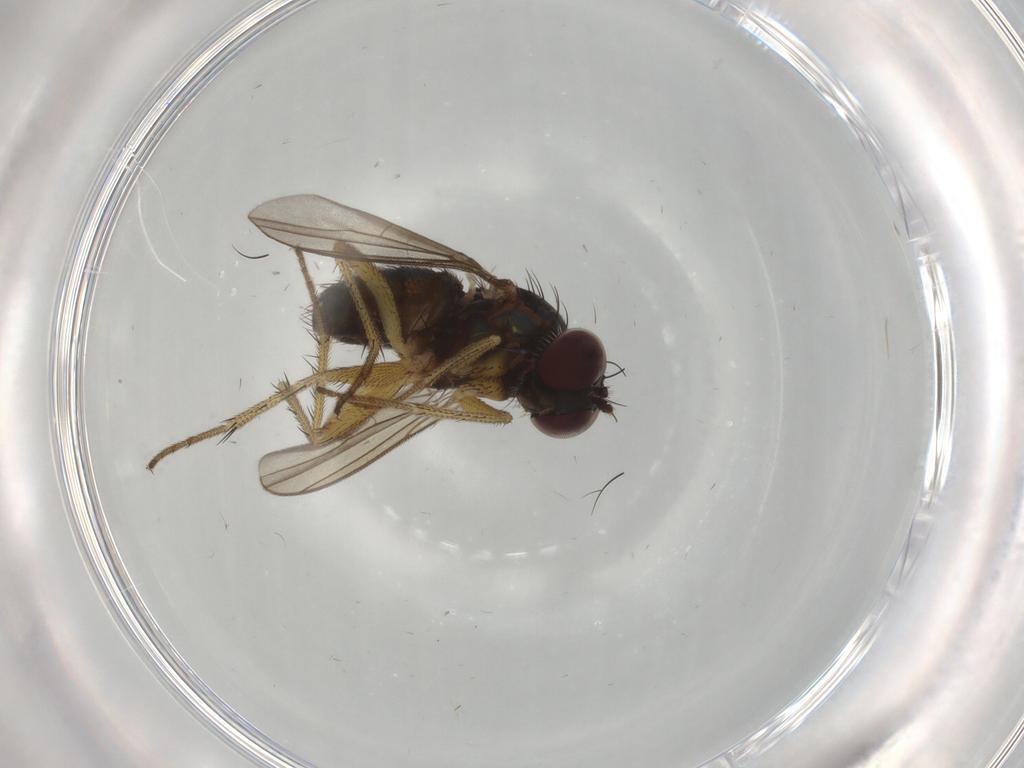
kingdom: Animalia
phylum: Arthropoda
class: Insecta
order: Diptera
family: Dolichopodidae
